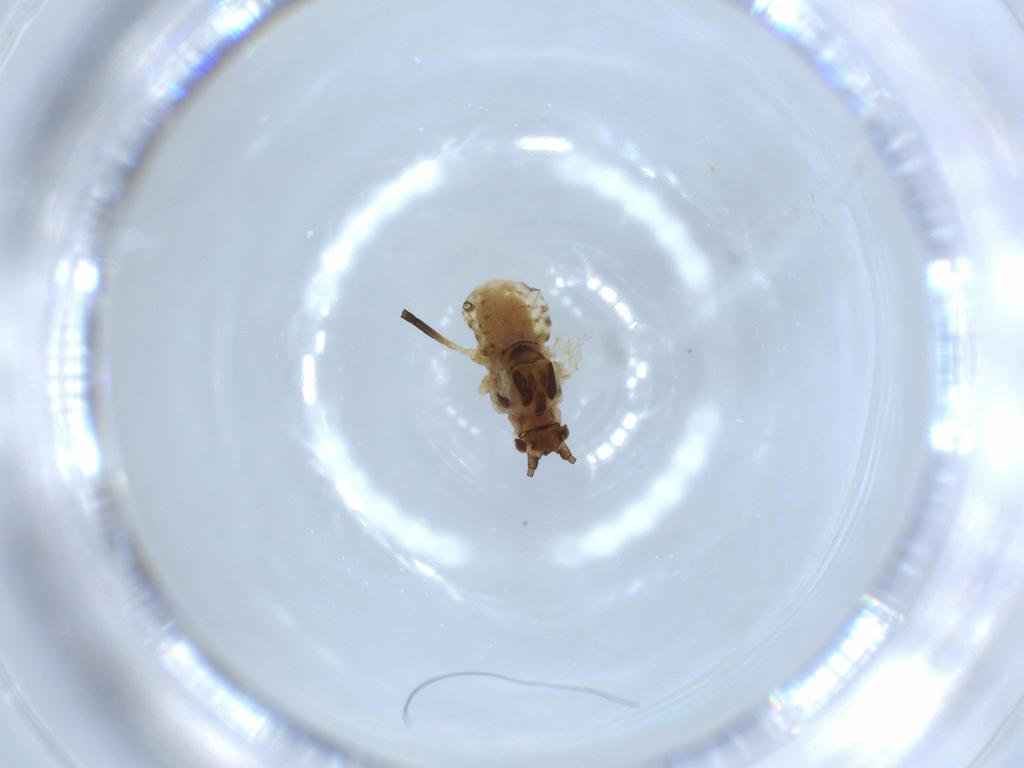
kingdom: Animalia
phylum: Arthropoda
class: Insecta
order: Hemiptera
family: Aphididae
